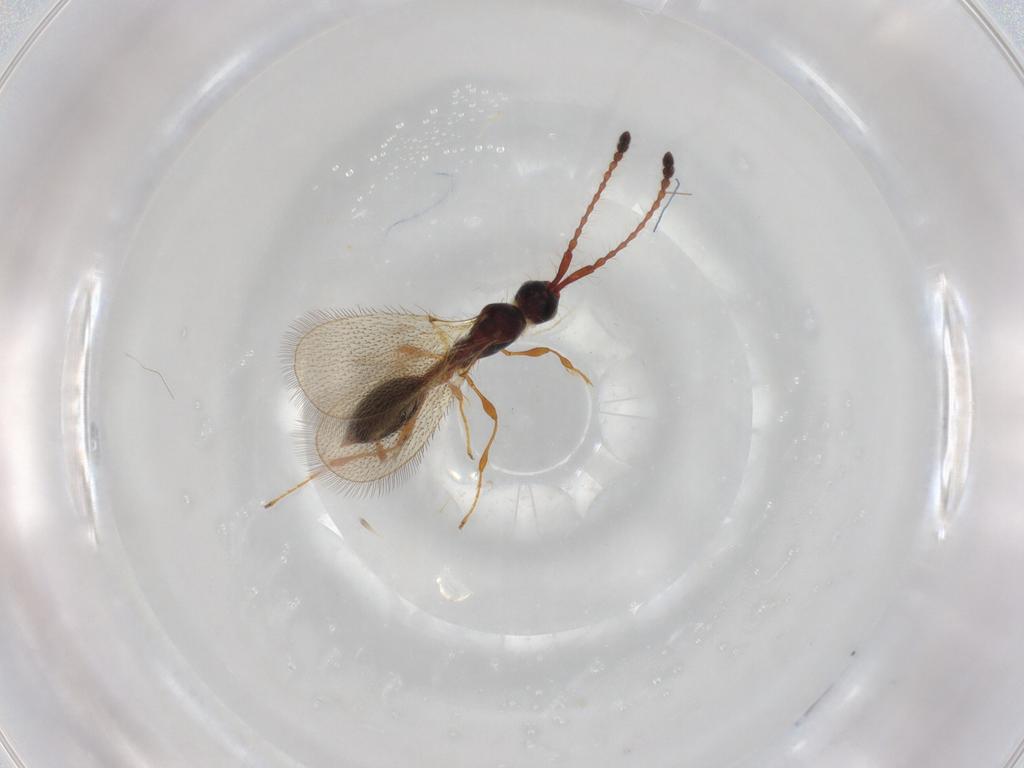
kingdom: Animalia
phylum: Arthropoda
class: Insecta
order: Hymenoptera
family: Diapriidae
